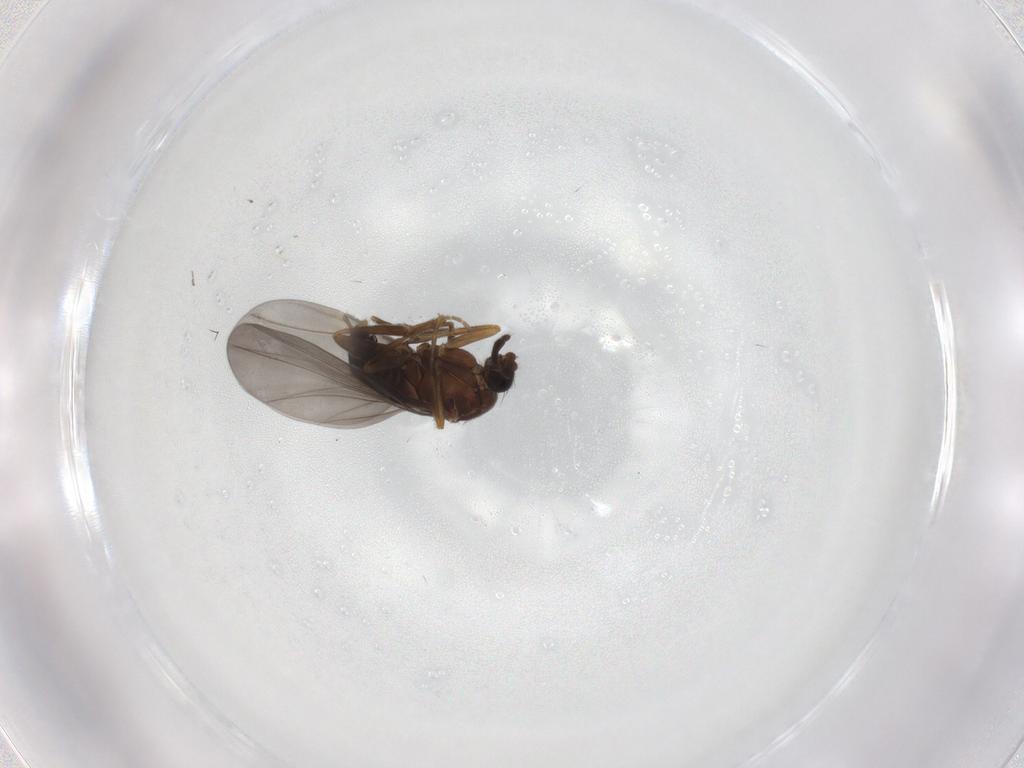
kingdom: Animalia
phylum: Arthropoda
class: Insecta
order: Diptera
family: Phoridae
